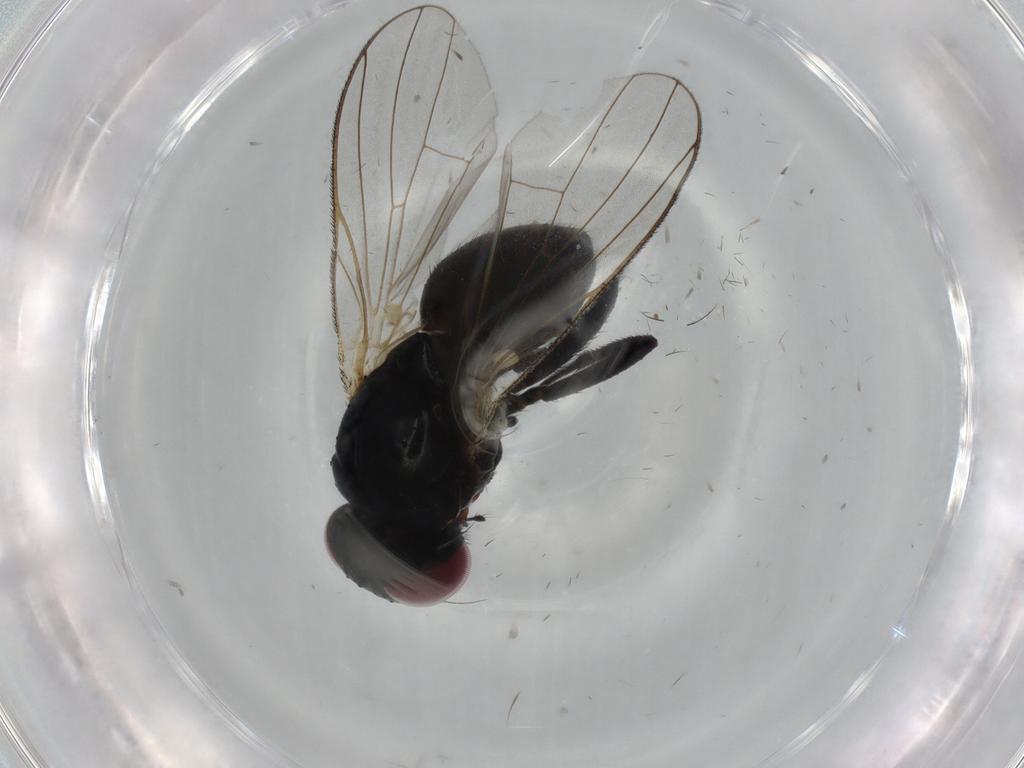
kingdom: Animalia
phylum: Arthropoda
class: Insecta
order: Diptera
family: Fannia
